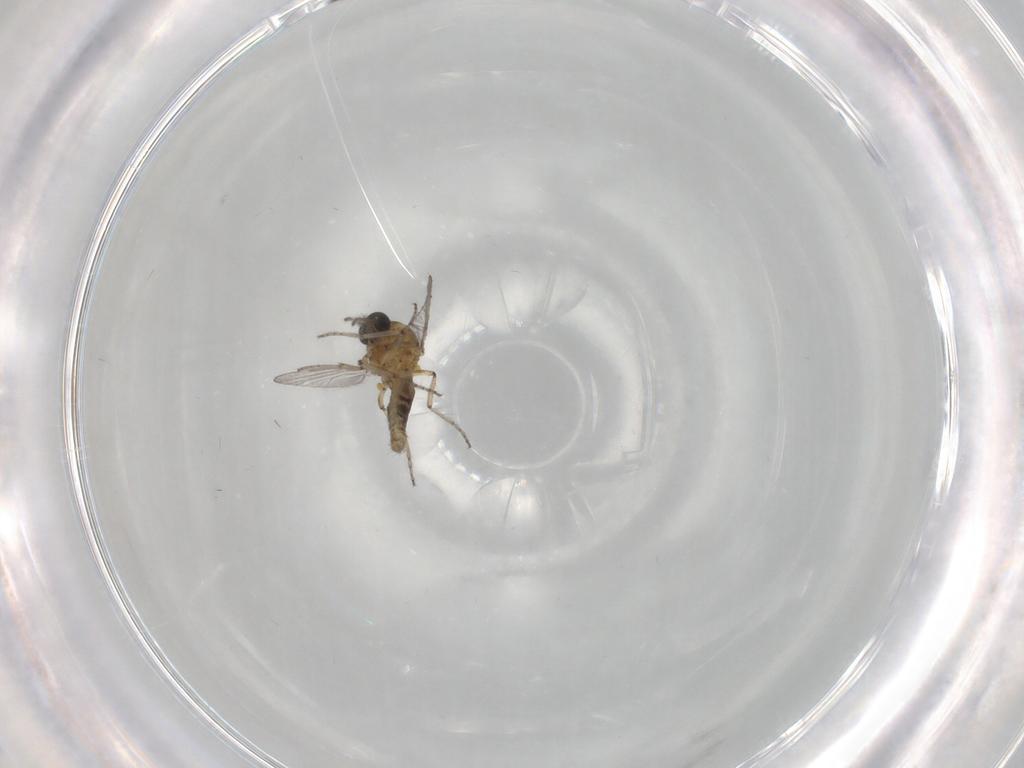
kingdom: Animalia
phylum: Arthropoda
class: Insecta
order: Diptera
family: Ceratopogonidae
